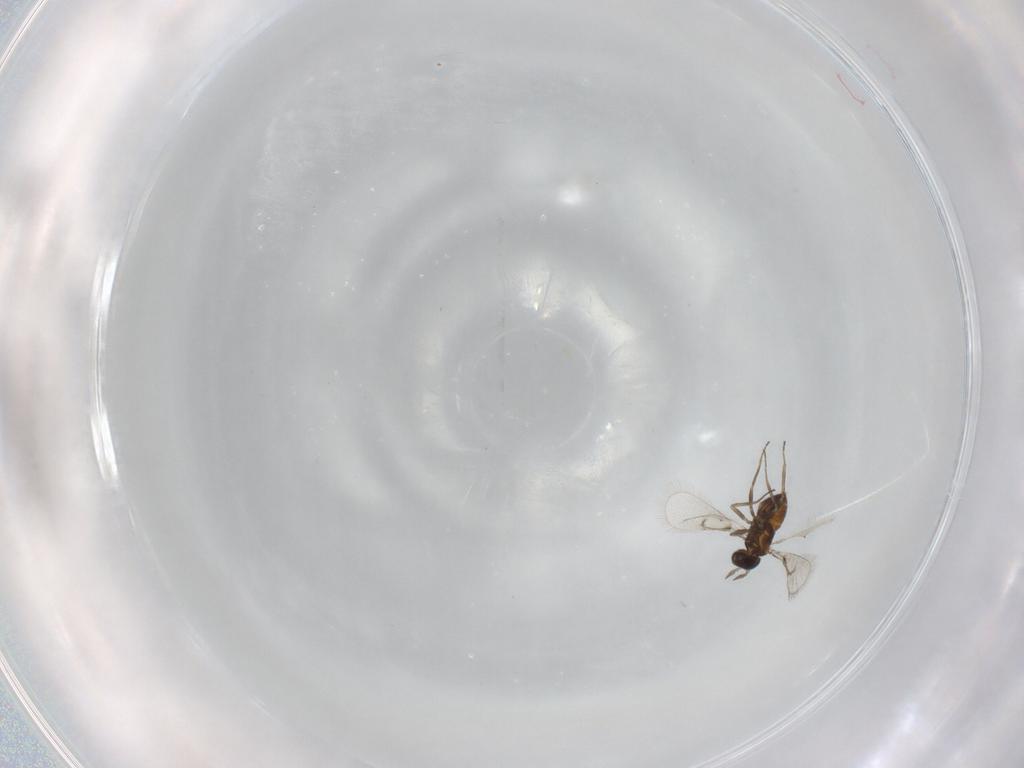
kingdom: Animalia
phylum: Arthropoda
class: Insecta
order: Hymenoptera
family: Trichogrammatidae
